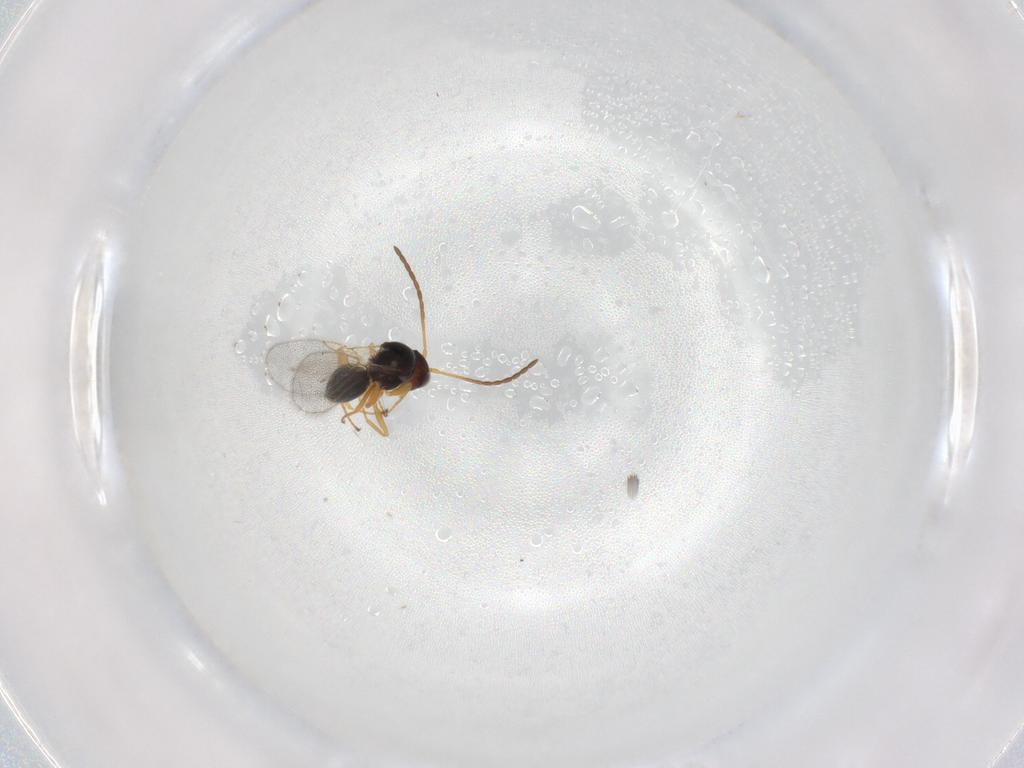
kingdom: Animalia
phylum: Arthropoda
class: Insecta
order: Hymenoptera
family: Figitidae
